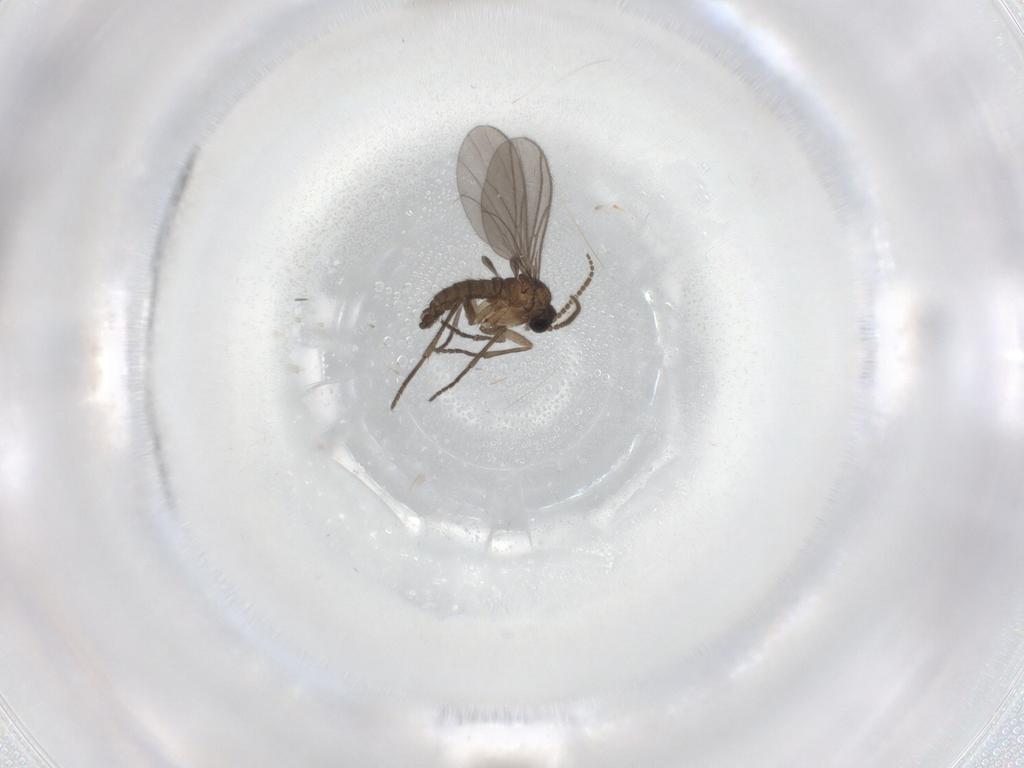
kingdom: Animalia
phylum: Arthropoda
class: Insecta
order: Diptera
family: Sciaridae
